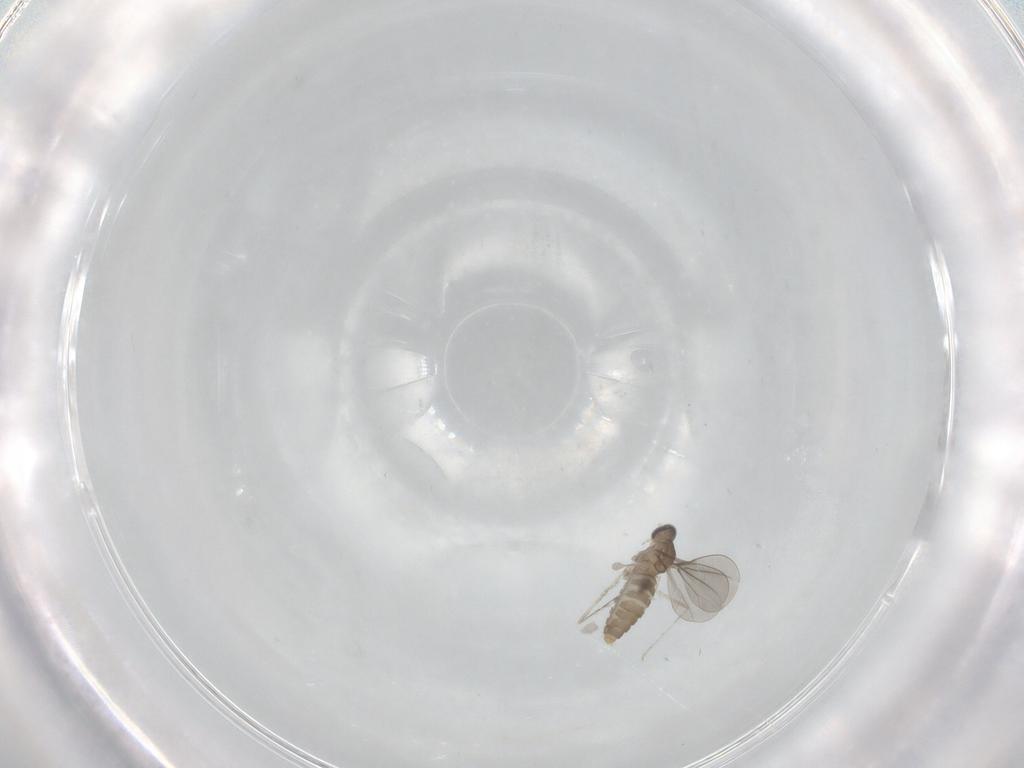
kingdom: Animalia
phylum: Arthropoda
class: Insecta
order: Diptera
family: Cecidomyiidae
